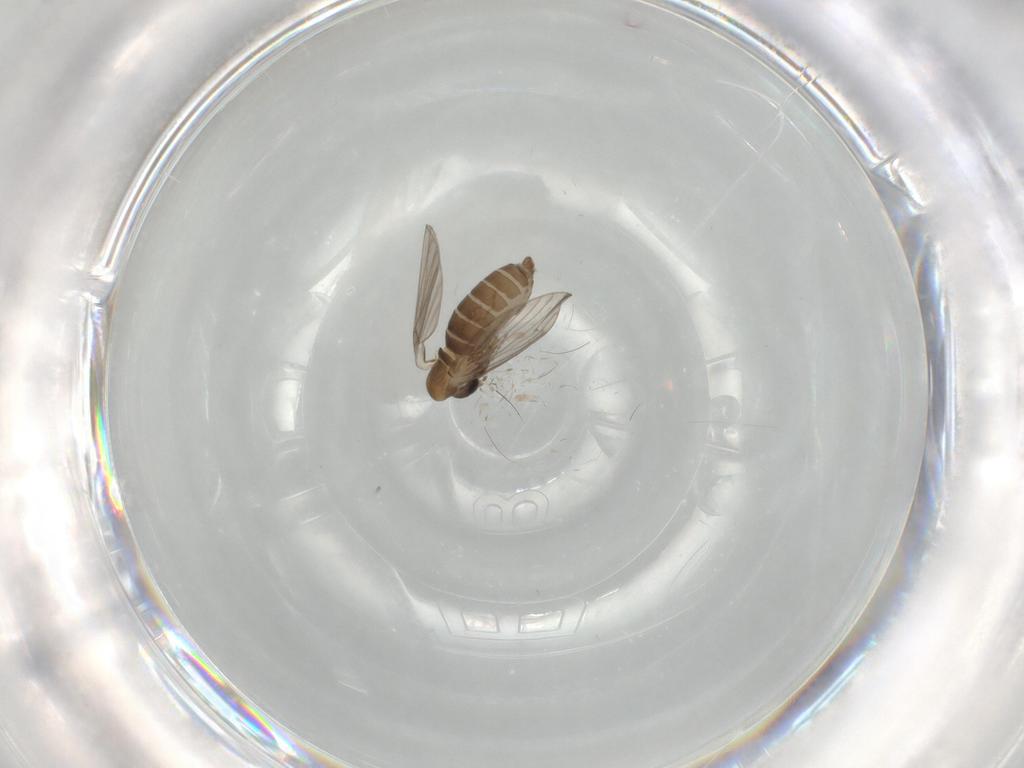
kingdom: Animalia
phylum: Arthropoda
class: Insecta
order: Diptera
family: Psychodidae
